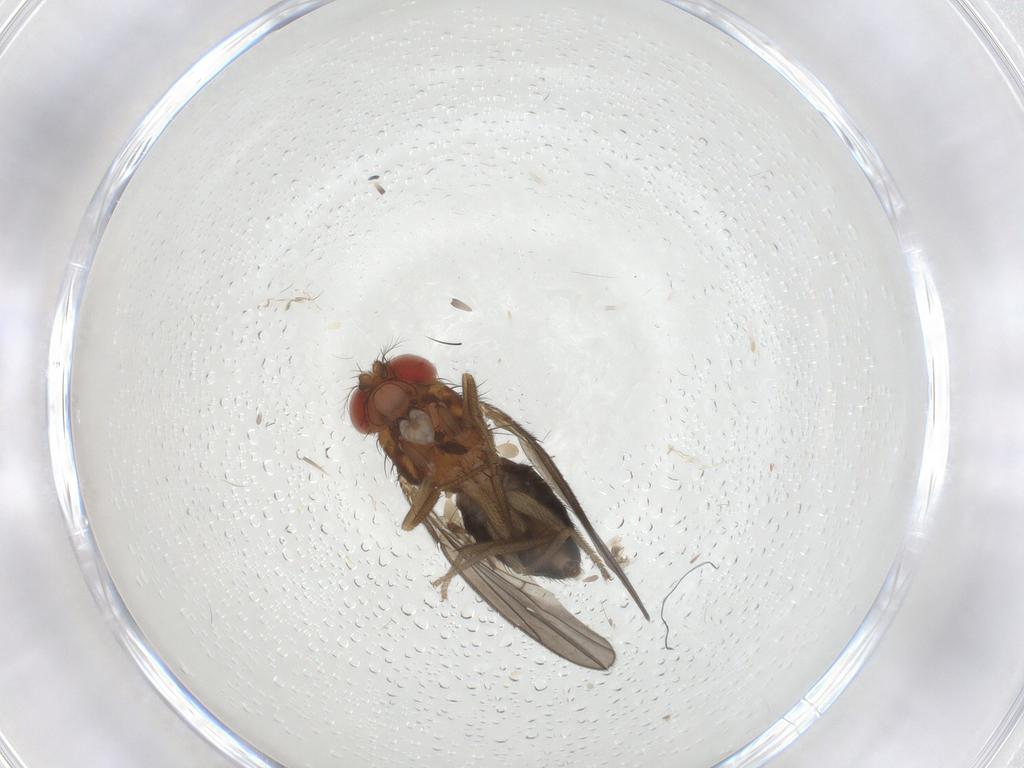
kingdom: Animalia
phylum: Arthropoda
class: Insecta
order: Diptera
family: Drosophilidae
